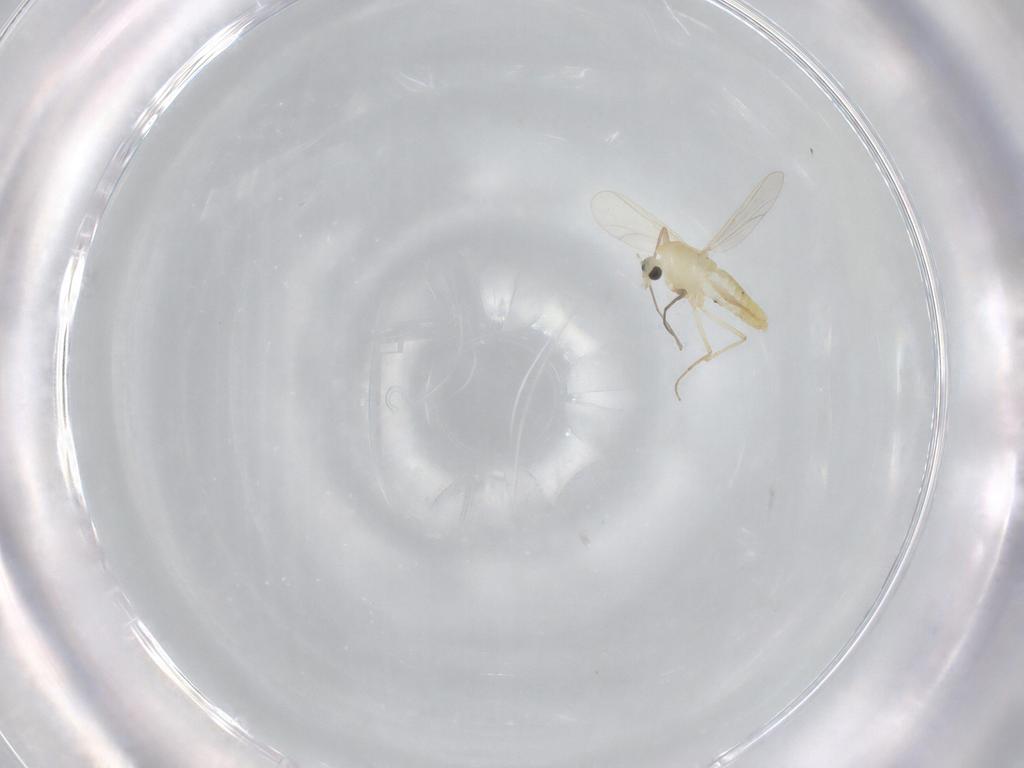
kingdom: Animalia
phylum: Arthropoda
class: Insecta
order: Diptera
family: Chironomidae
